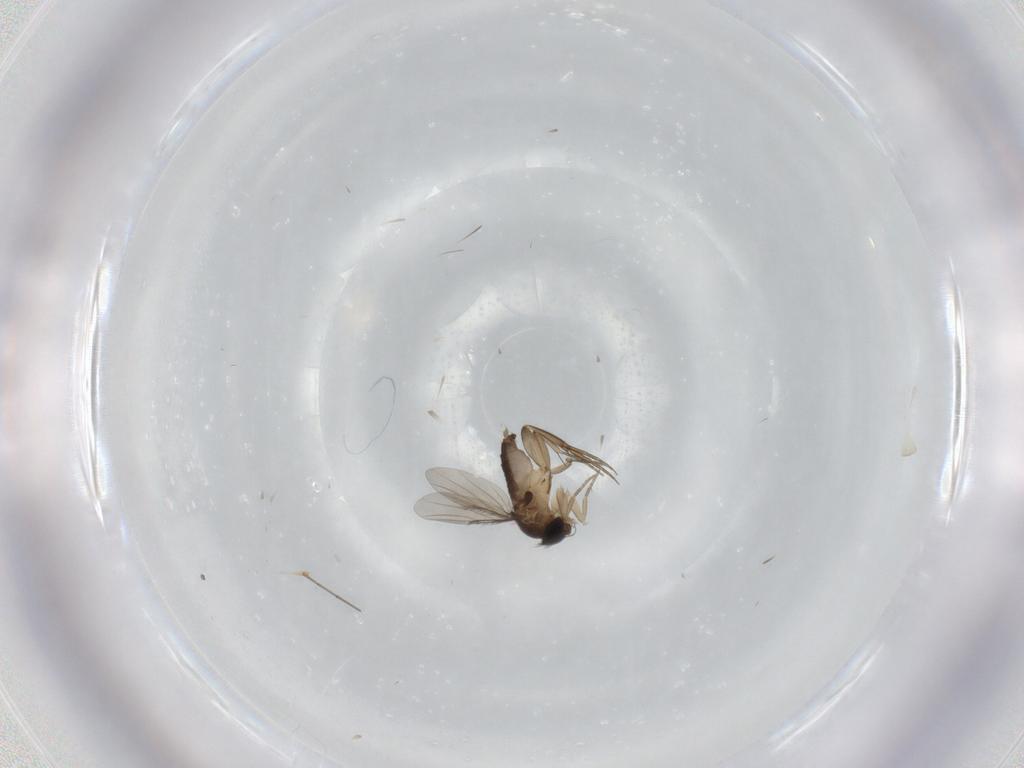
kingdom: Animalia
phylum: Arthropoda
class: Insecta
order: Diptera
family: Phoridae
